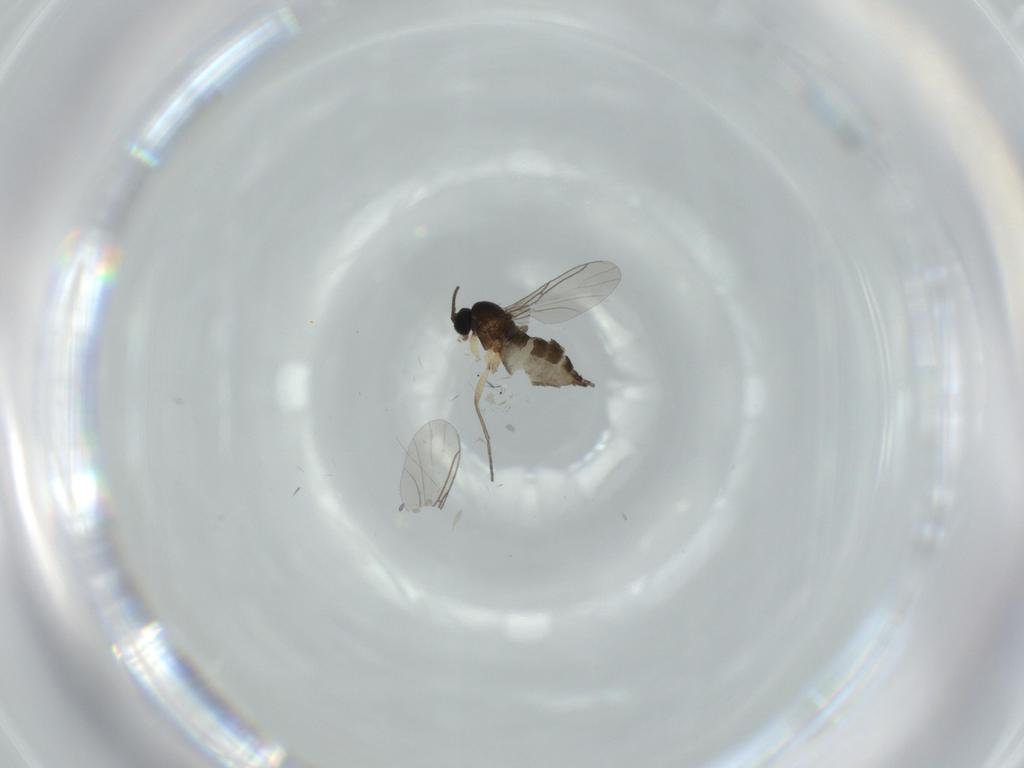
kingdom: Animalia
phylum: Arthropoda
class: Insecta
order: Diptera
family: Sciaridae
